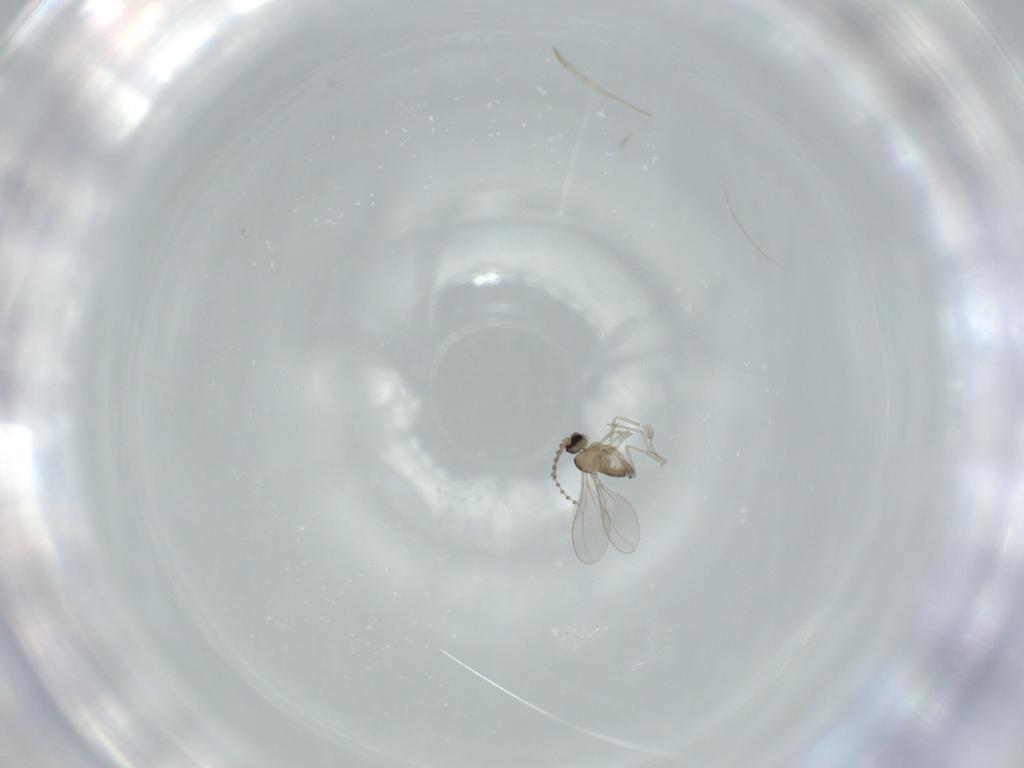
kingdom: Animalia
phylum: Arthropoda
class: Insecta
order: Diptera
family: Cecidomyiidae
